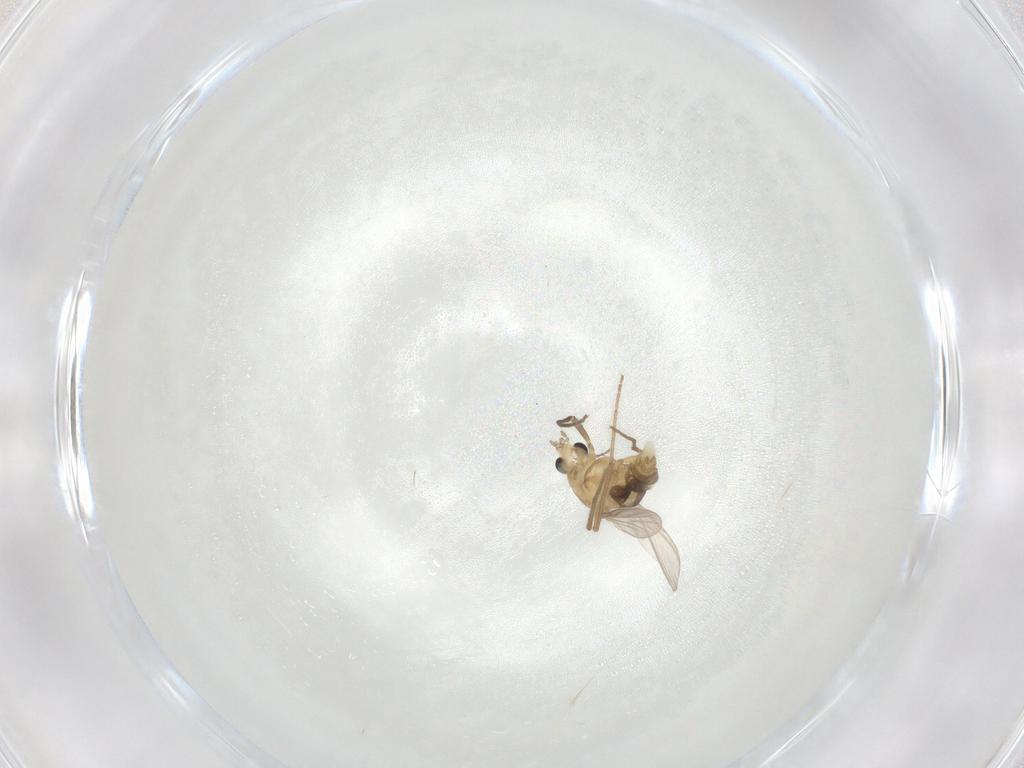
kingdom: Animalia
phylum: Arthropoda
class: Insecta
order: Diptera
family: Chironomidae
